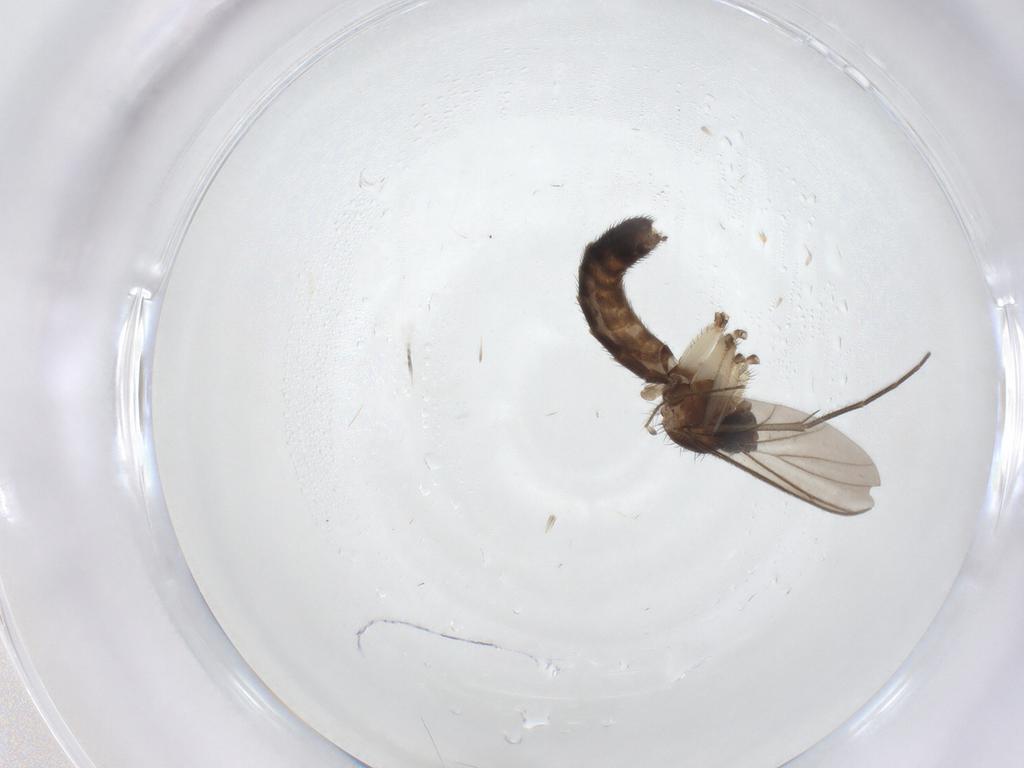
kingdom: Animalia
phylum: Arthropoda
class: Insecta
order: Diptera
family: Keroplatidae
